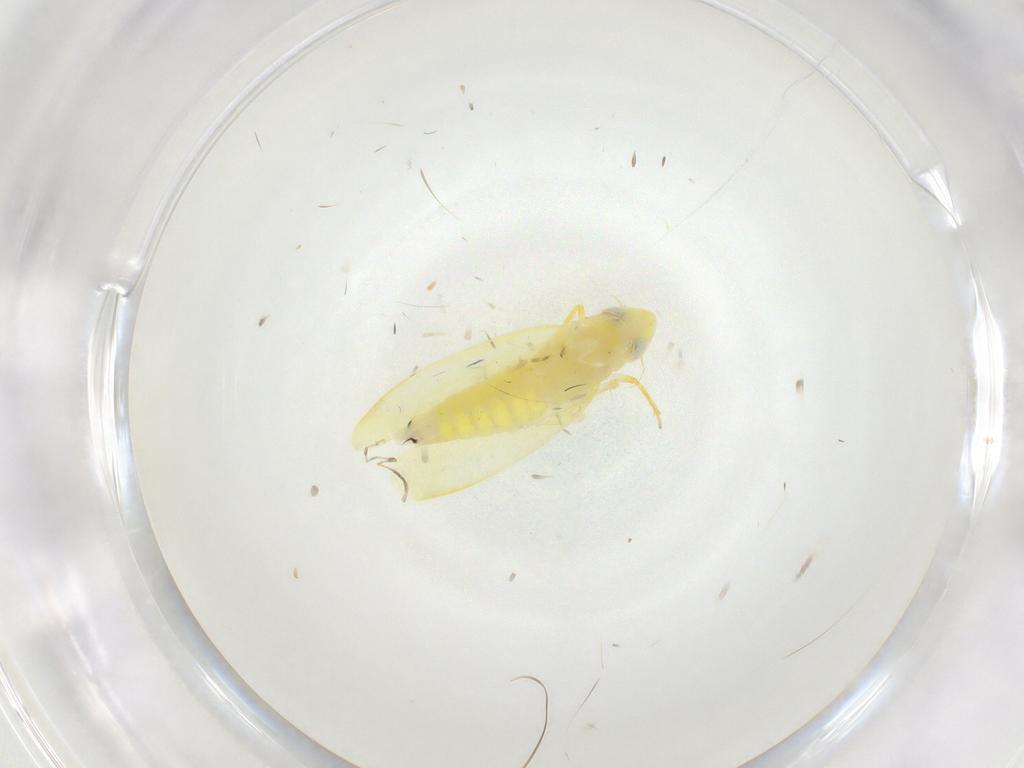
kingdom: Animalia
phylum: Arthropoda
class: Insecta
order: Hemiptera
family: Cicadellidae
